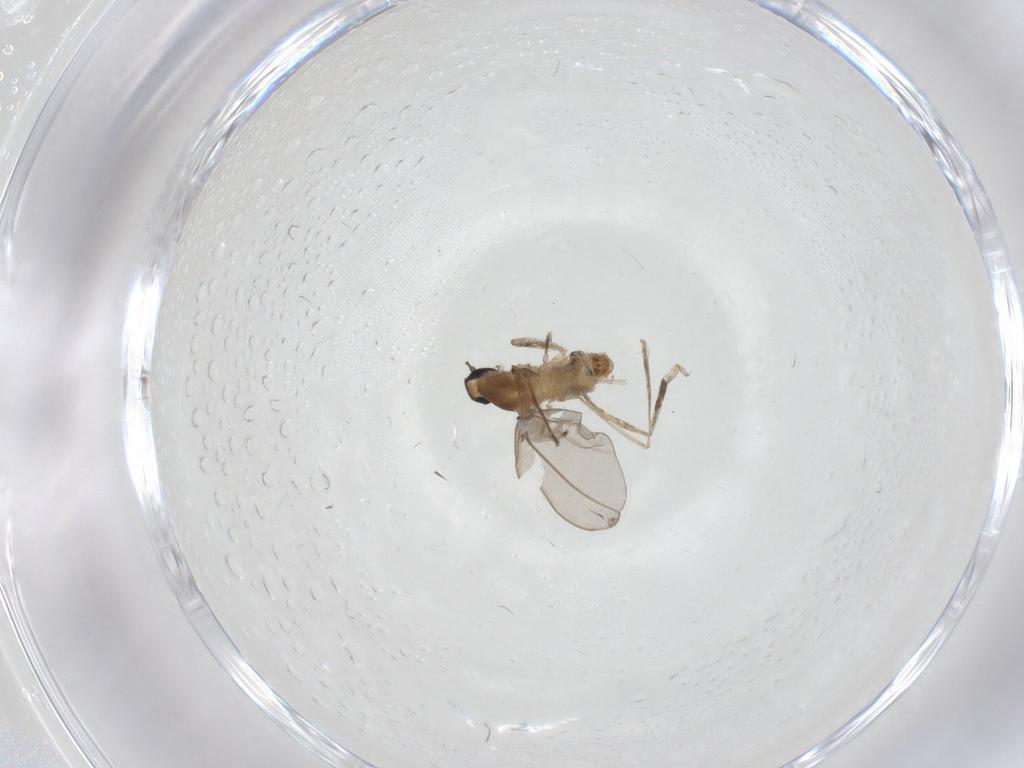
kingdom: Animalia
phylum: Arthropoda
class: Insecta
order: Diptera
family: Cecidomyiidae
